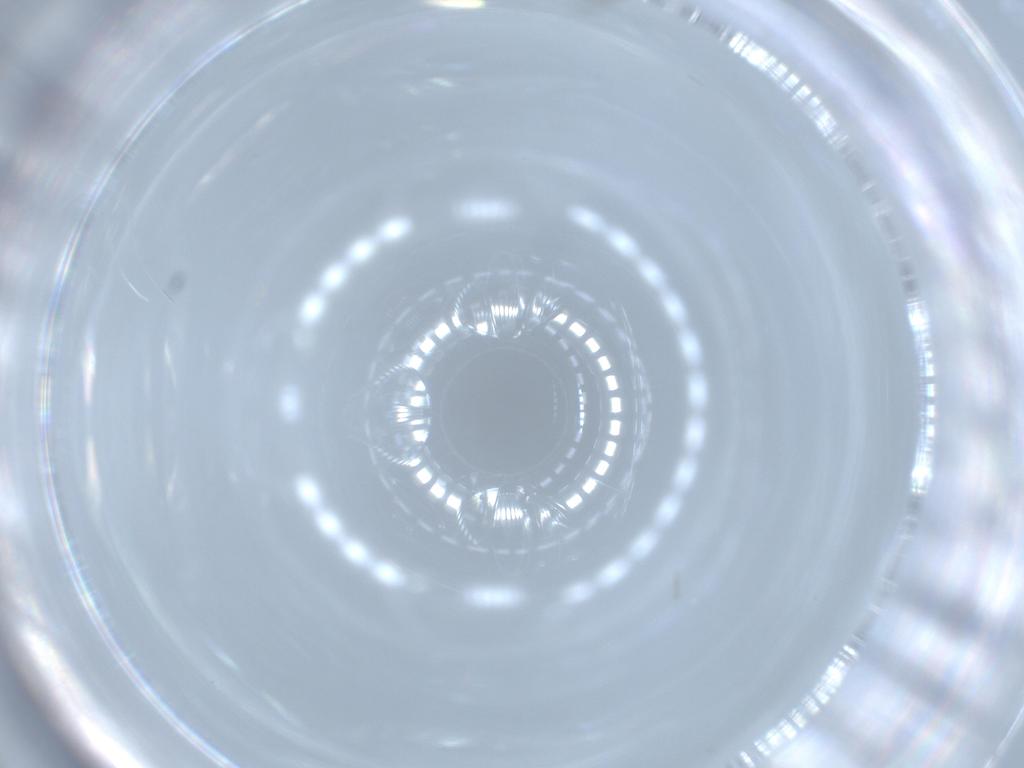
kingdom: Animalia
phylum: Arthropoda
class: Insecta
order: Hymenoptera
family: Aphelinidae
